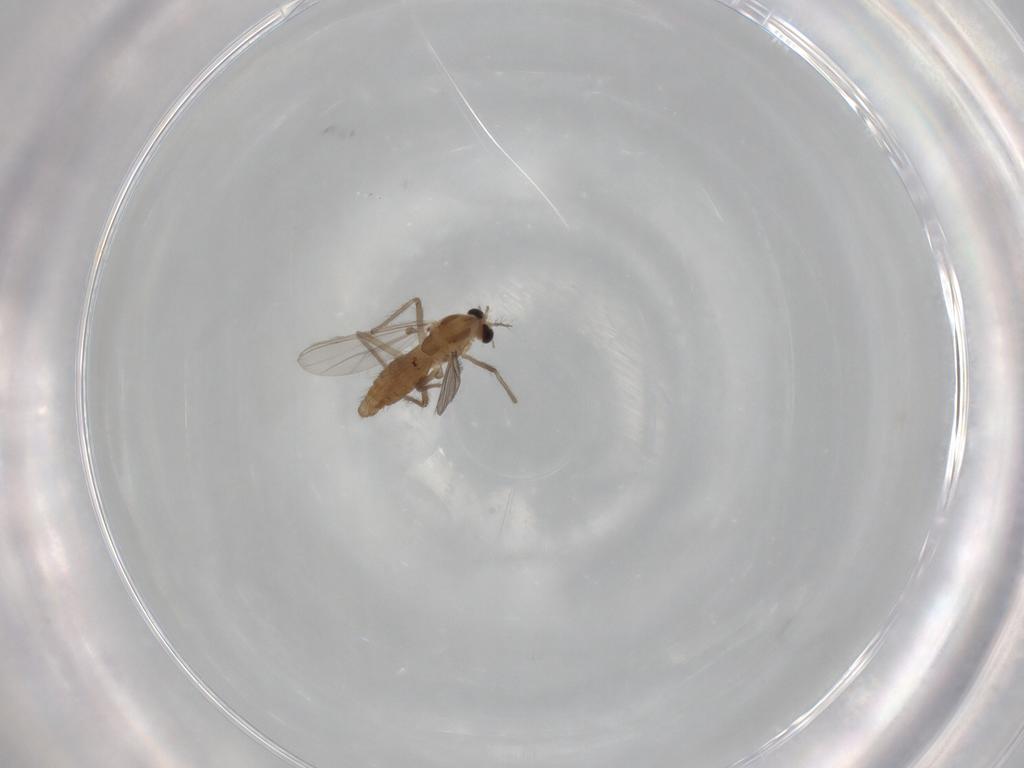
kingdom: Animalia
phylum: Arthropoda
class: Insecta
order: Diptera
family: Chironomidae
